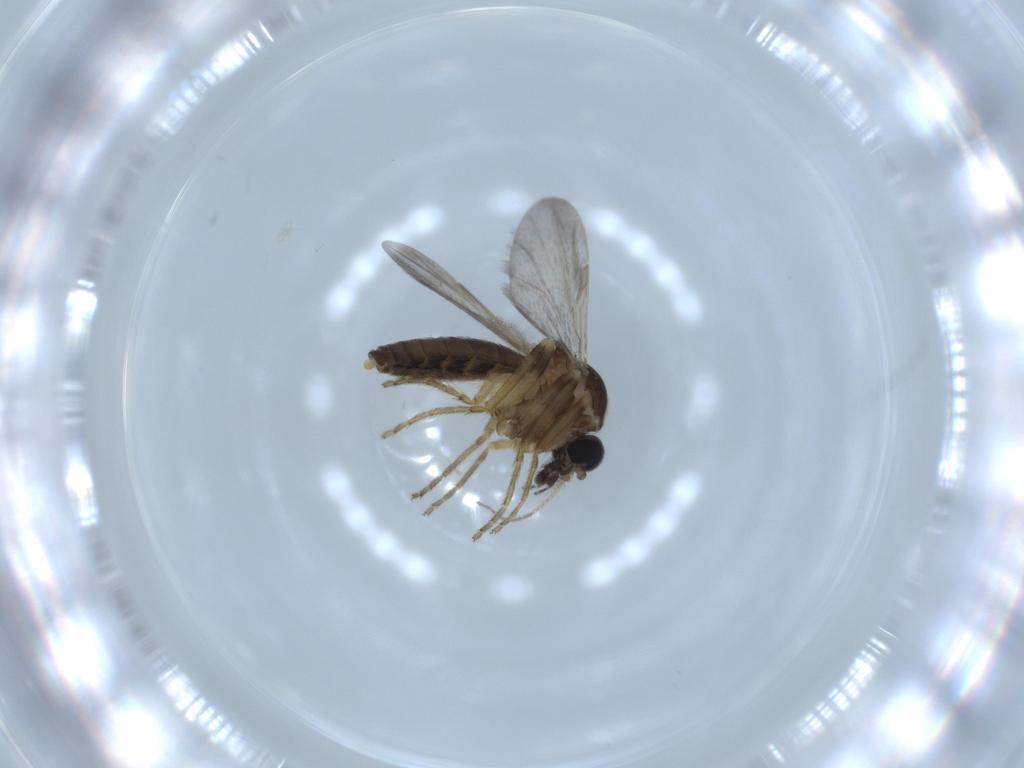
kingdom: Animalia
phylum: Arthropoda
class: Insecta
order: Diptera
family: Ceratopogonidae
